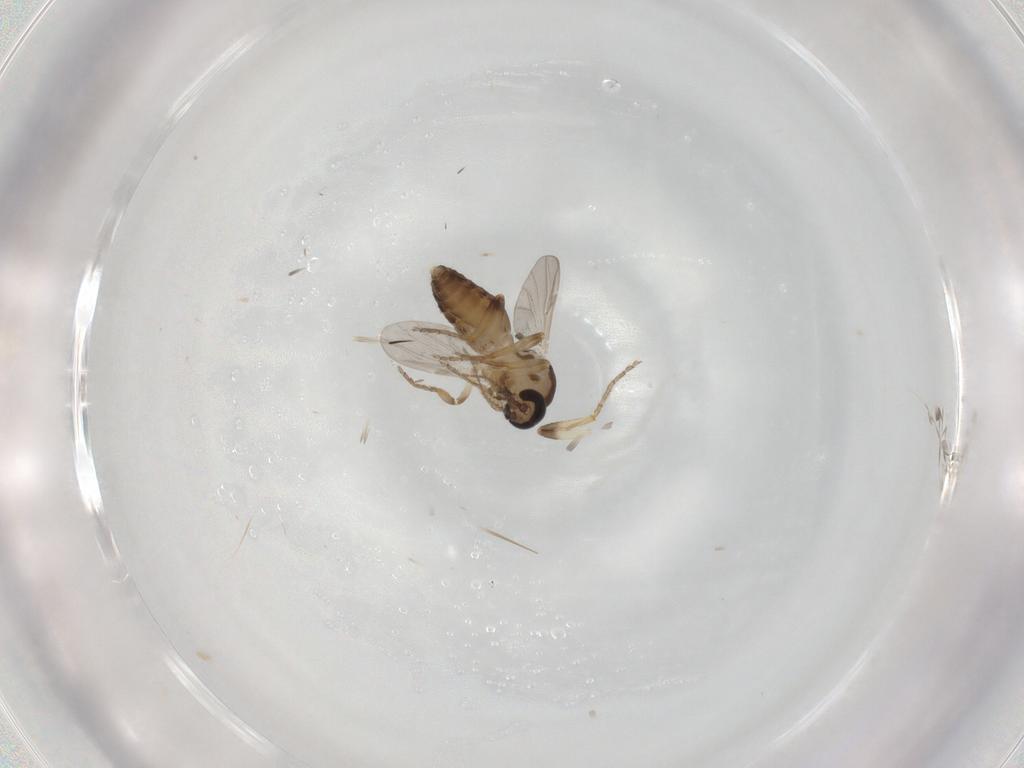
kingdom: Animalia
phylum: Arthropoda
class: Insecta
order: Diptera
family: Ceratopogonidae
